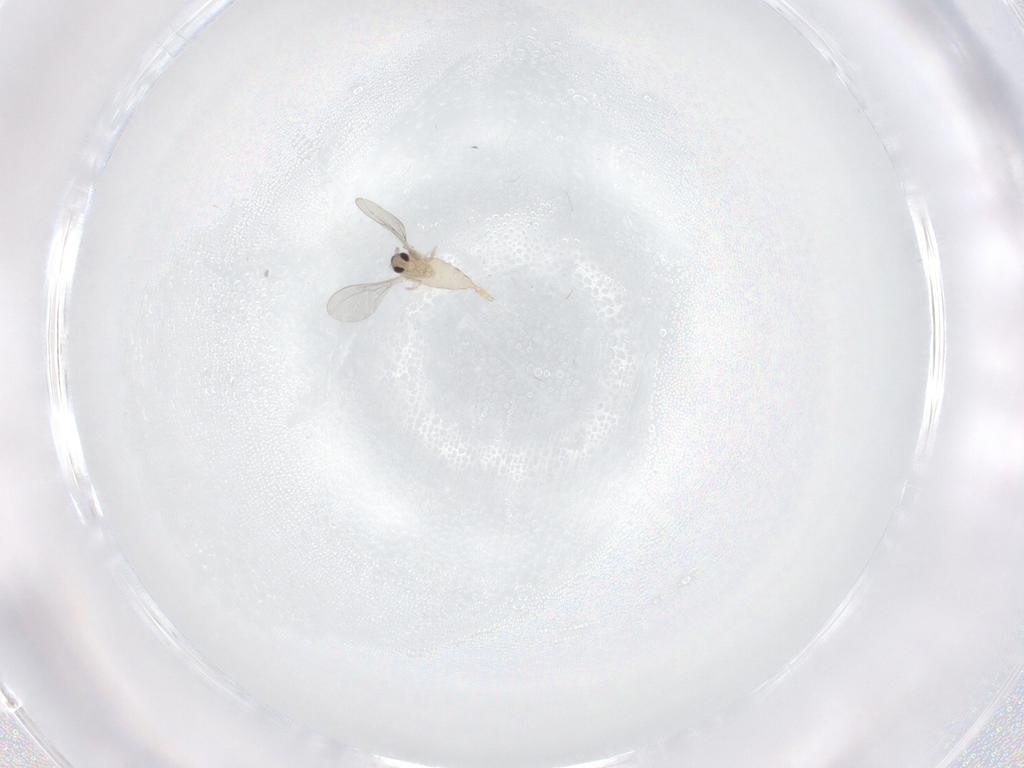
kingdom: Animalia
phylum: Arthropoda
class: Insecta
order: Diptera
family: Cecidomyiidae
